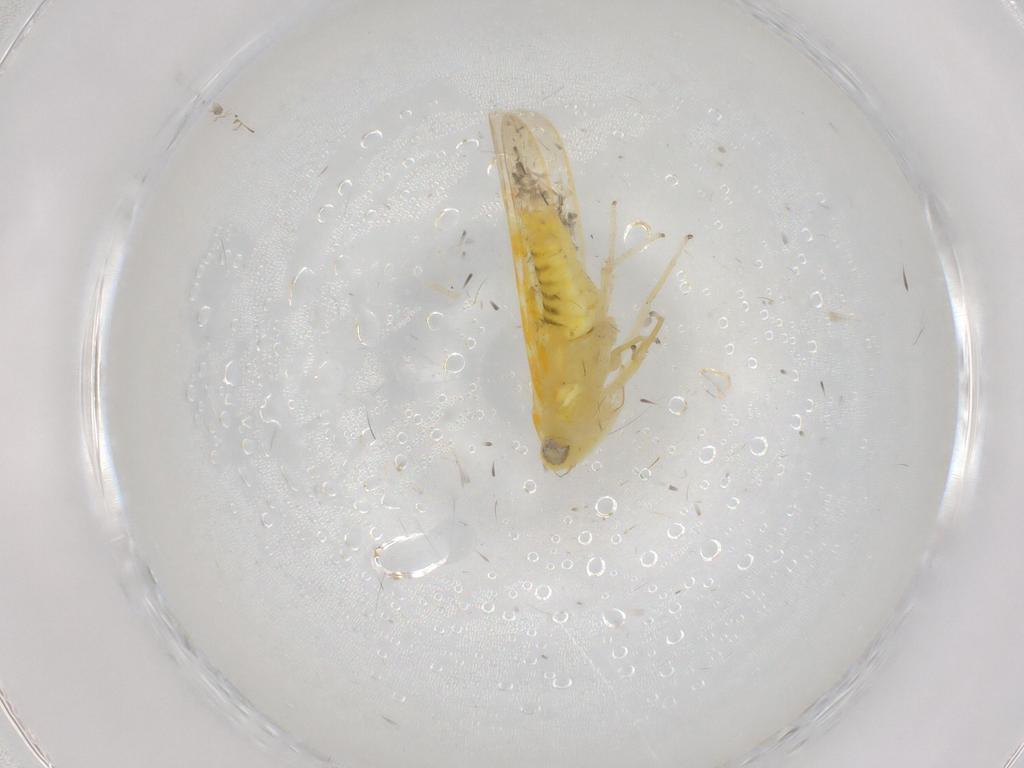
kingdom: Animalia
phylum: Arthropoda
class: Insecta
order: Hemiptera
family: Cicadellidae
